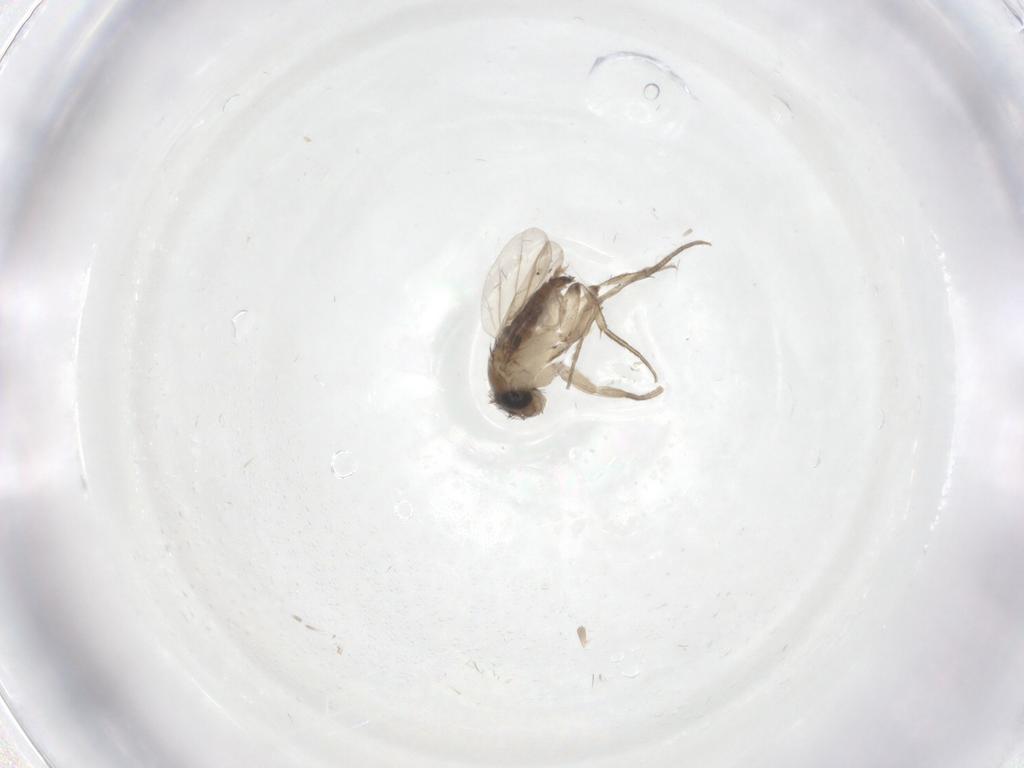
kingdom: Animalia
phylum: Arthropoda
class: Insecta
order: Diptera
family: Phoridae
